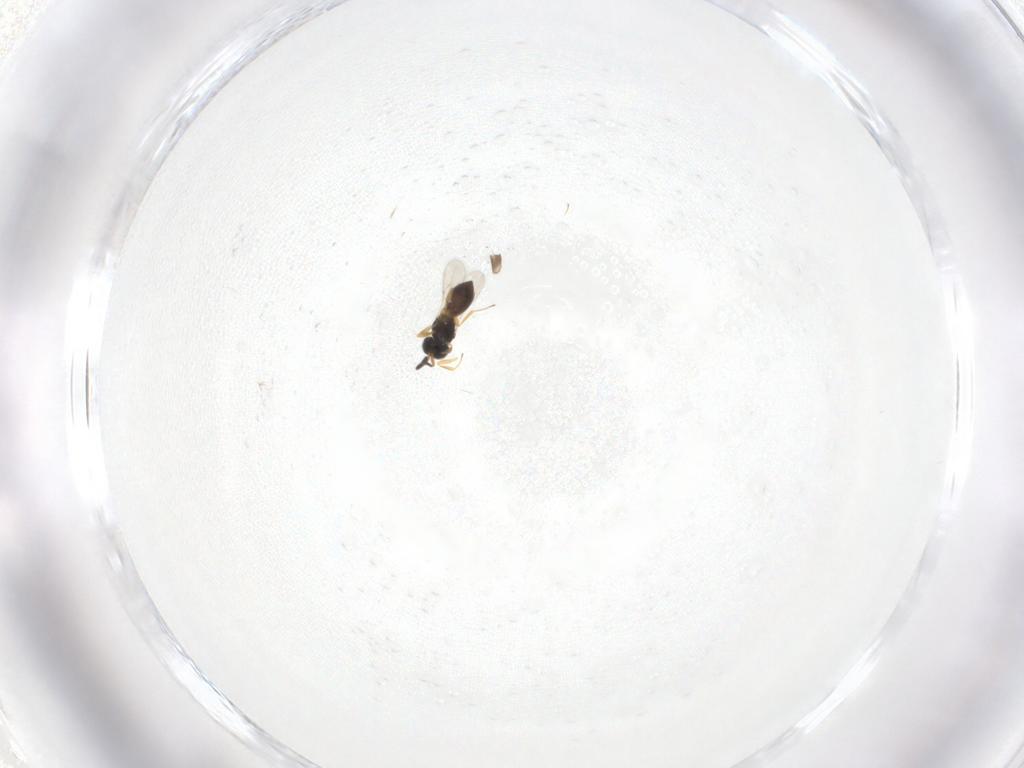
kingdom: Animalia
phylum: Arthropoda
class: Insecta
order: Hymenoptera
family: Scelionidae
